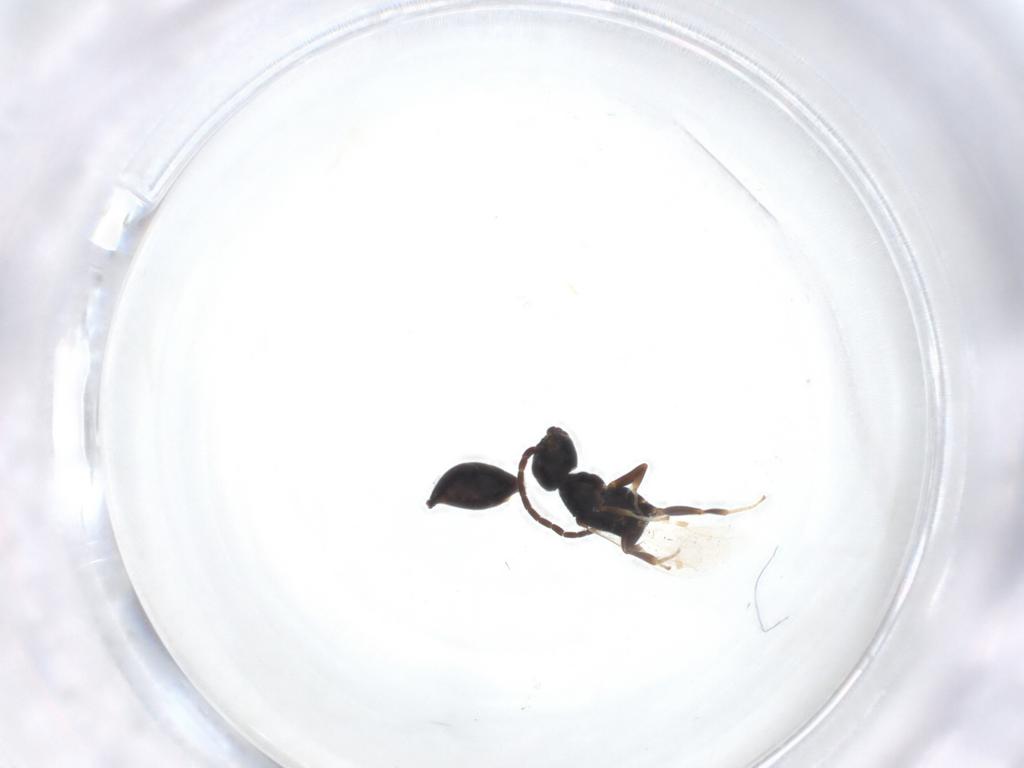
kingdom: Animalia
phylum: Arthropoda
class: Insecta
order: Hymenoptera
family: Bethylidae
